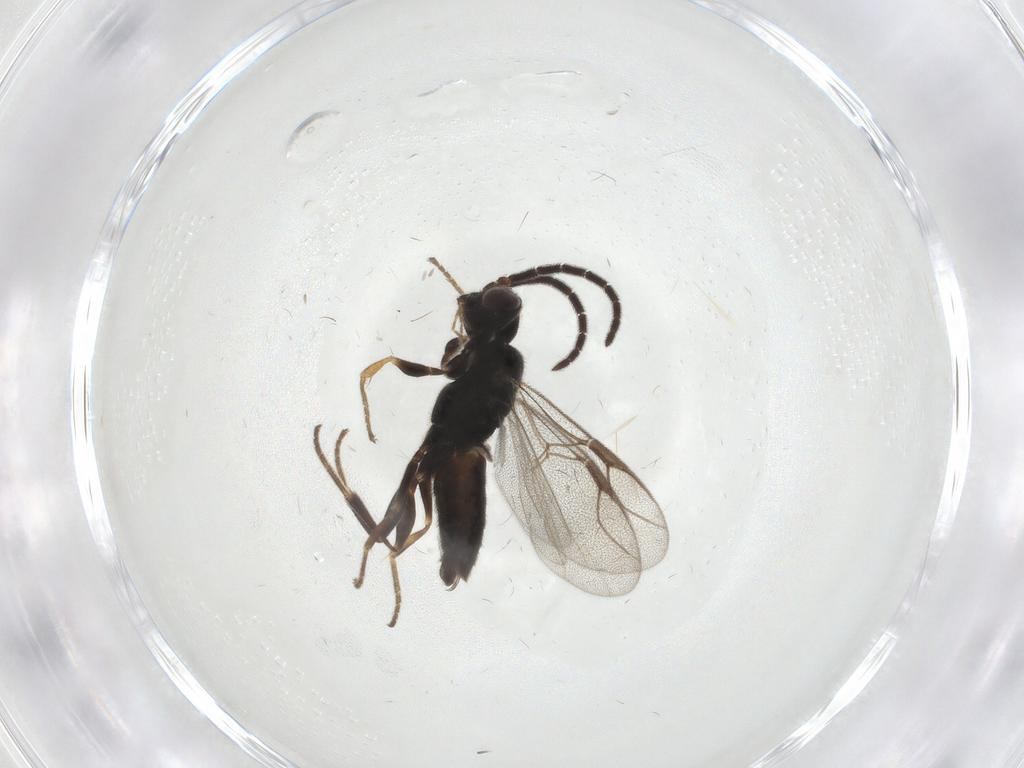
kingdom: Animalia
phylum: Arthropoda
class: Insecta
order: Hymenoptera
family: Dryinidae
